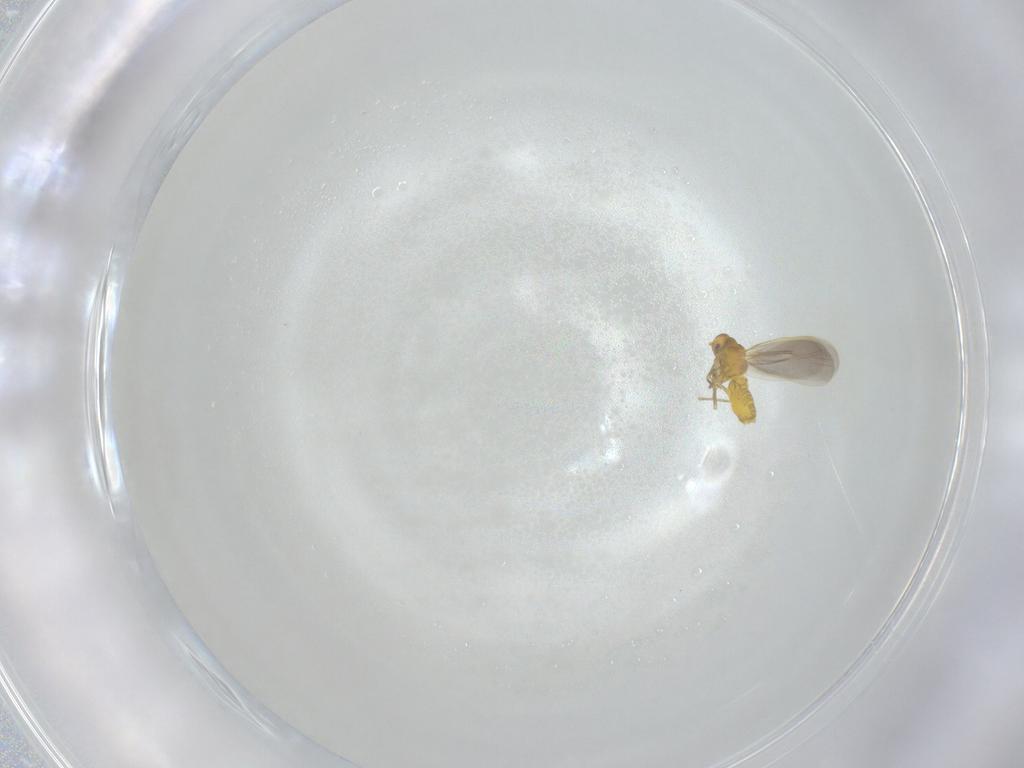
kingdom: Animalia
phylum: Arthropoda
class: Insecta
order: Hemiptera
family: Aleyrodidae
